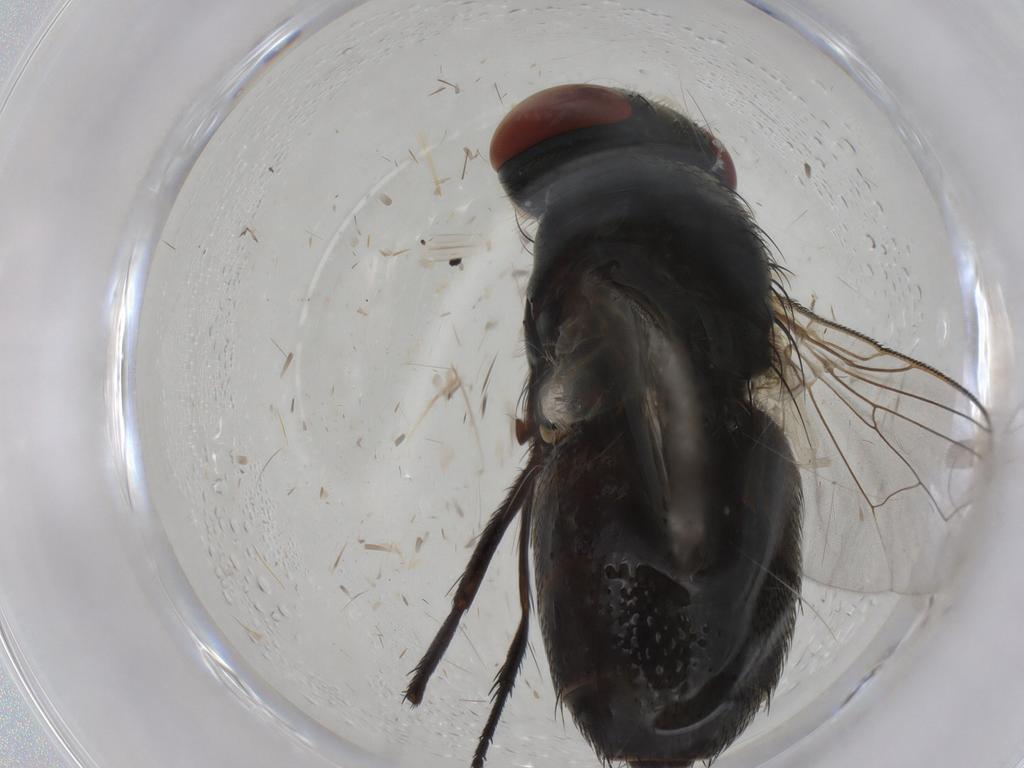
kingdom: Animalia
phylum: Arthropoda
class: Insecta
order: Diptera
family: Sarcophagidae
